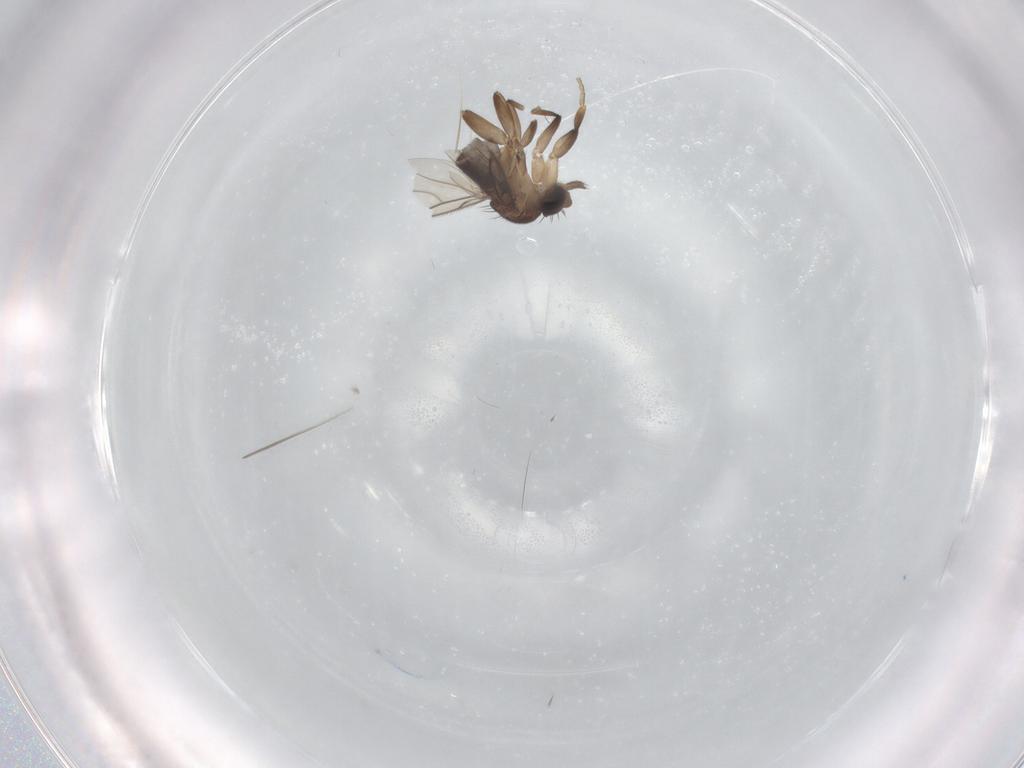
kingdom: Animalia
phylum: Arthropoda
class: Insecta
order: Diptera
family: Phoridae
